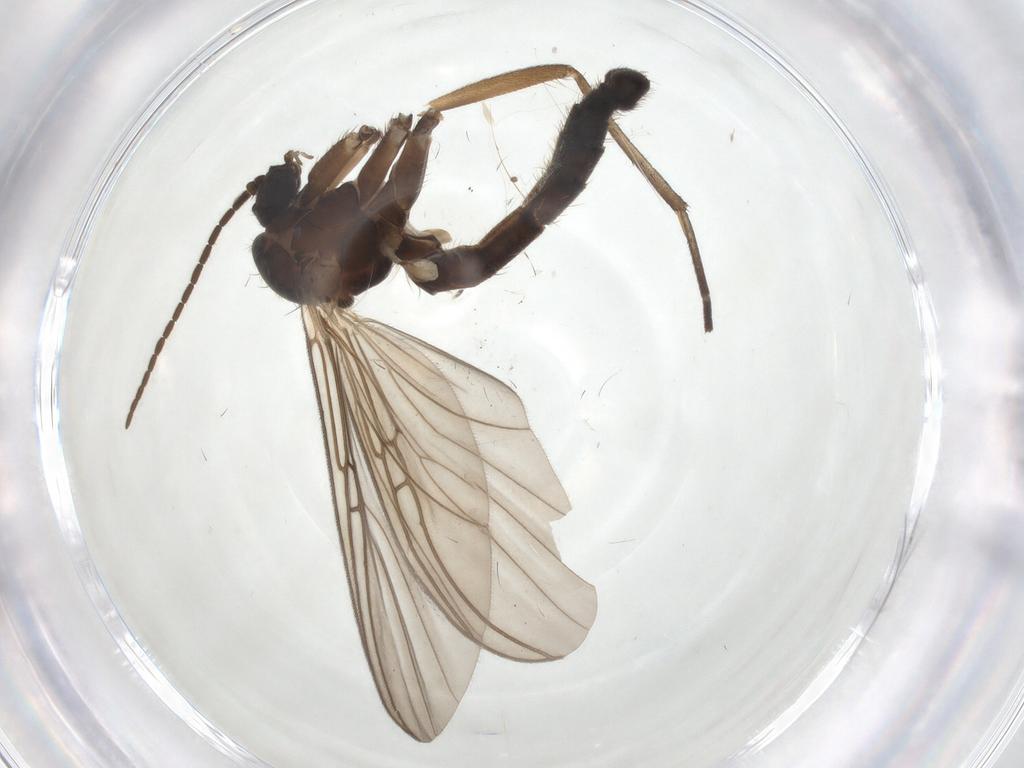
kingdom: Animalia
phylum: Arthropoda
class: Insecta
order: Diptera
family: Mycetophilidae
